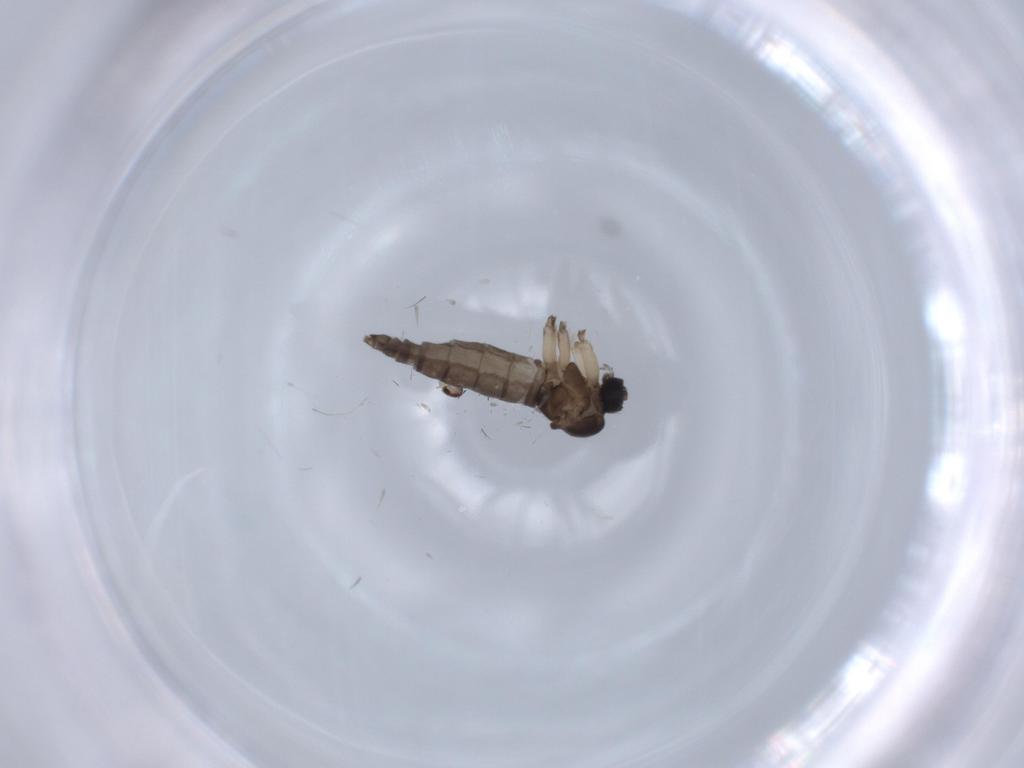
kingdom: Animalia
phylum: Arthropoda
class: Insecta
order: Diptera
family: Cecidomyiidae
